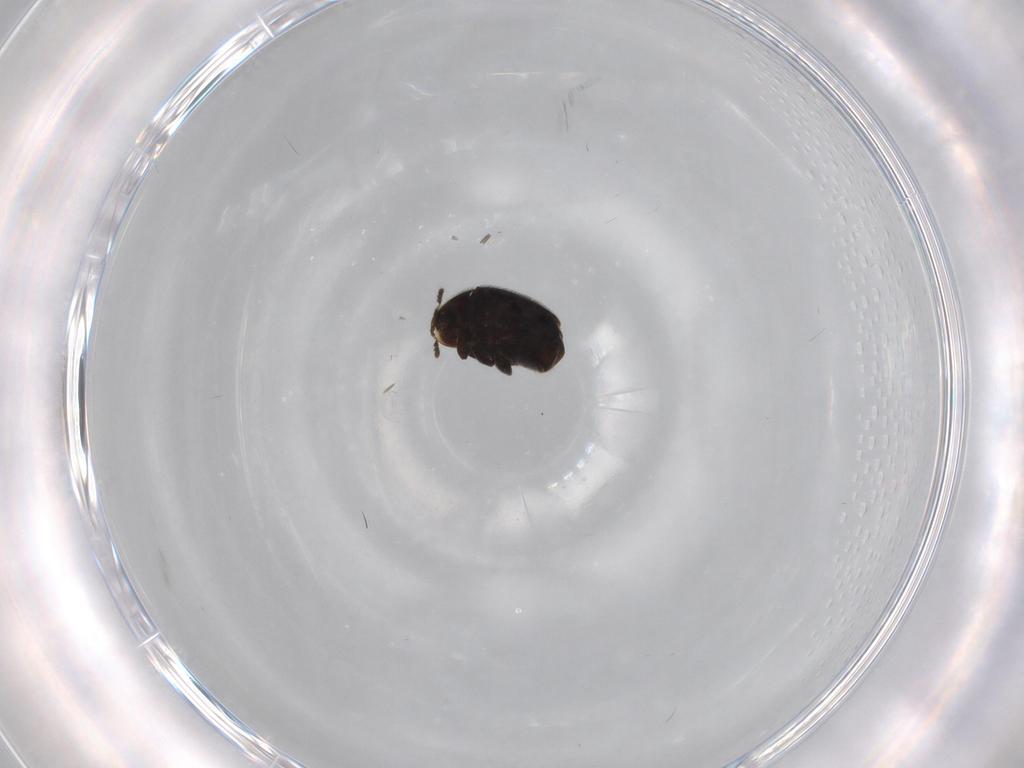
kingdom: Animalia
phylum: Arthropoda
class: Insecta
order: Coleoptera
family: Corylophidae
